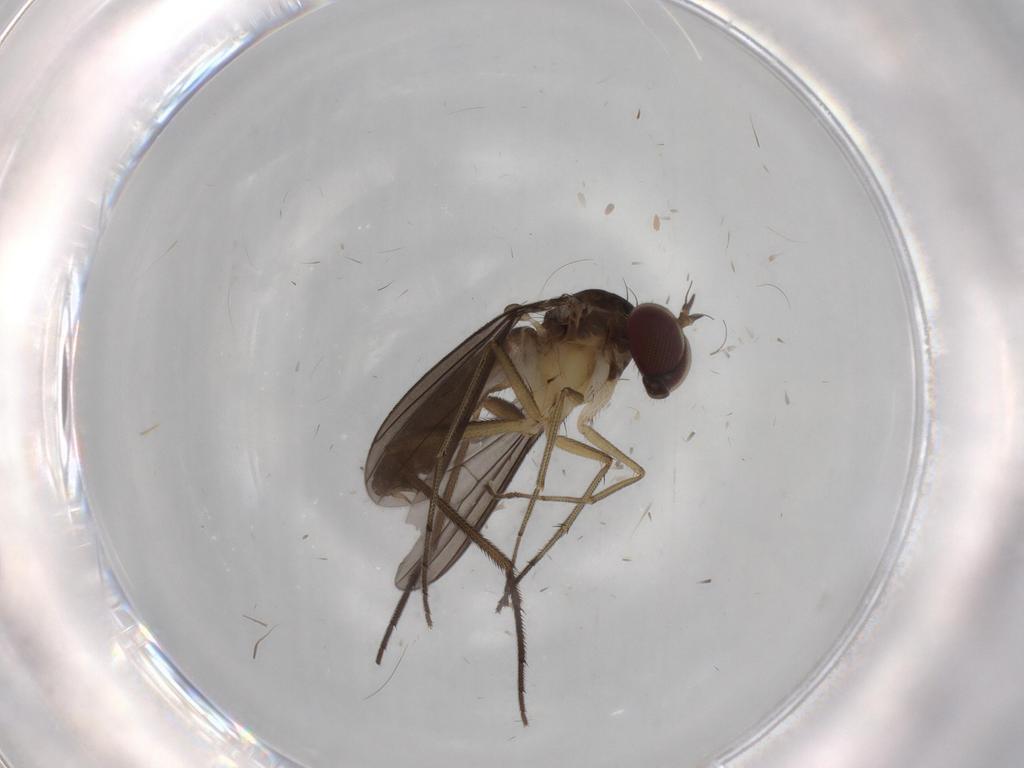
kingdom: Animalia
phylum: Arthropoda
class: Insecta
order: Diptera
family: Dolichopodidae
